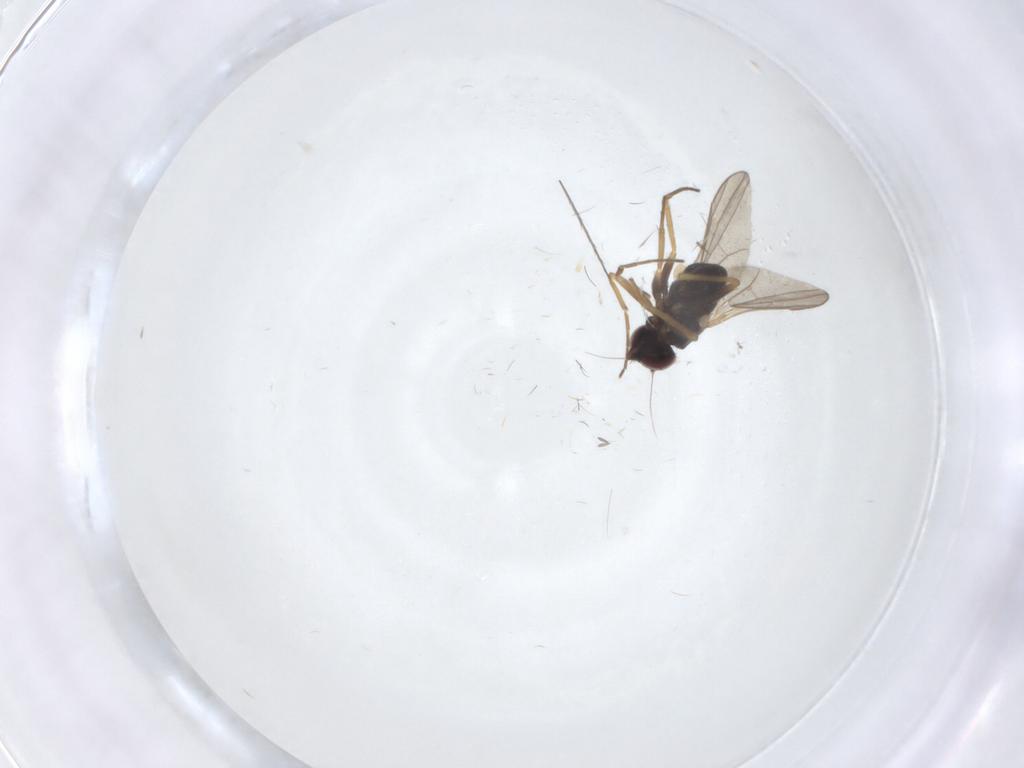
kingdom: Animalia
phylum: Arthropoda
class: Insecta
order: Diptera
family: Dolichopodidae
